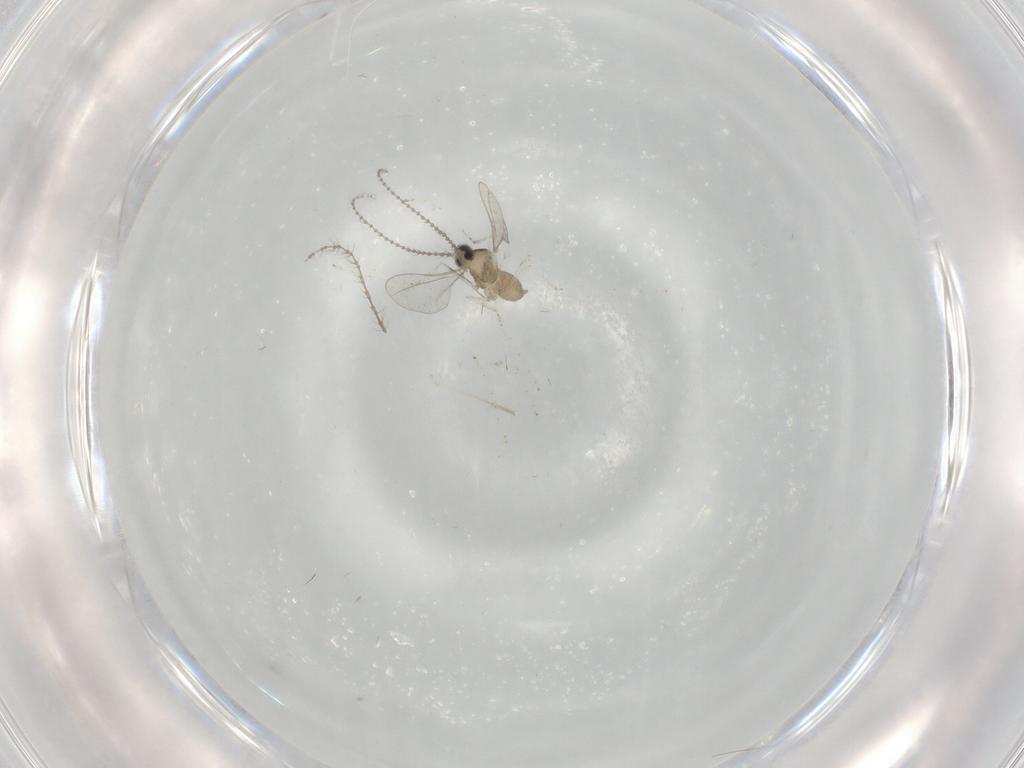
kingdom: Animalia
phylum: Arthropoda
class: Insecta
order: Diptera
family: Cecidomyiidae
